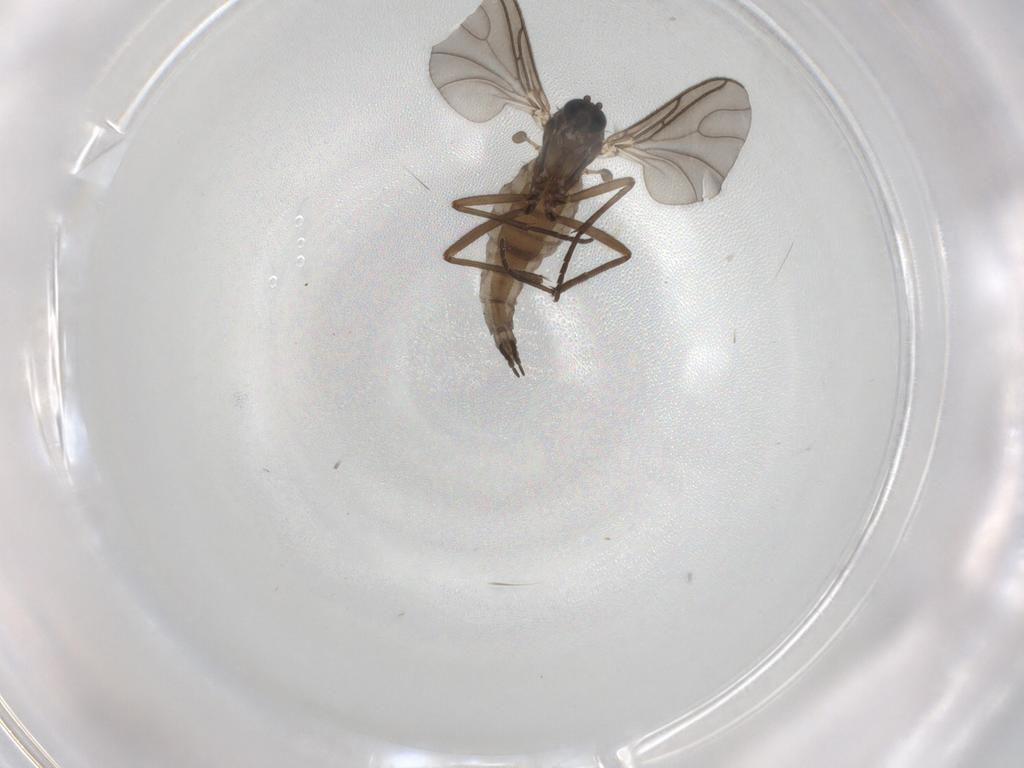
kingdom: Animalia
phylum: Arthropoda
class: Insecta
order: Diptera
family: Sciaridae
